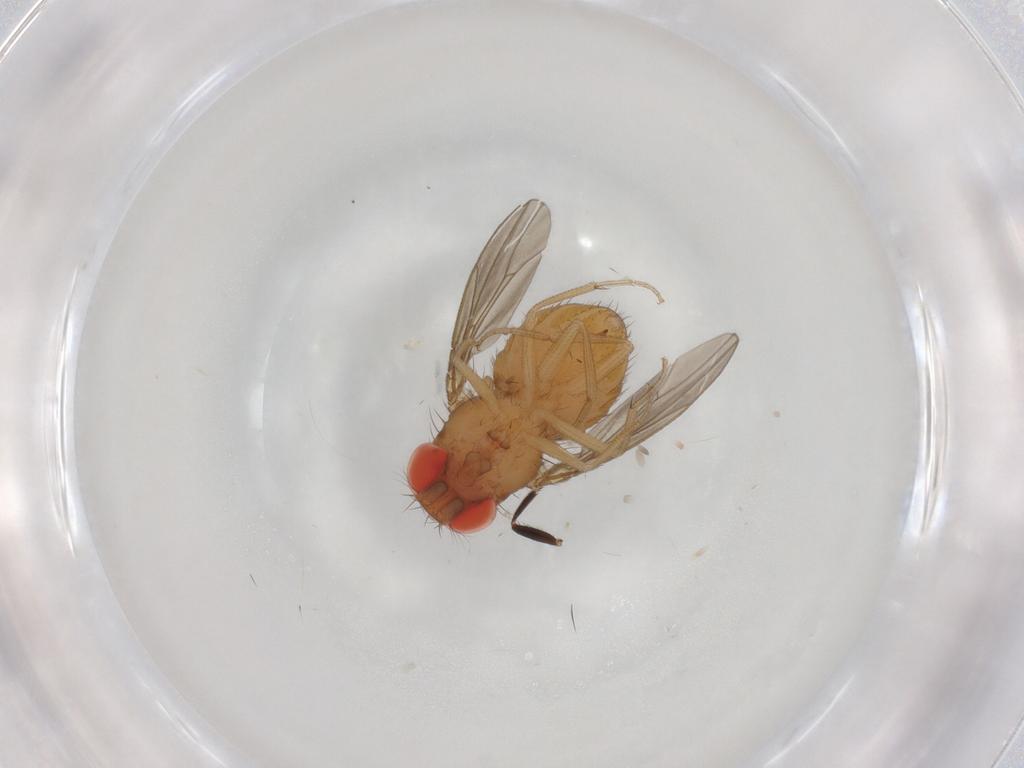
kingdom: Animalia
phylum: Arthropoda
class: Insecta
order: Diptera
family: Drosophilidae
